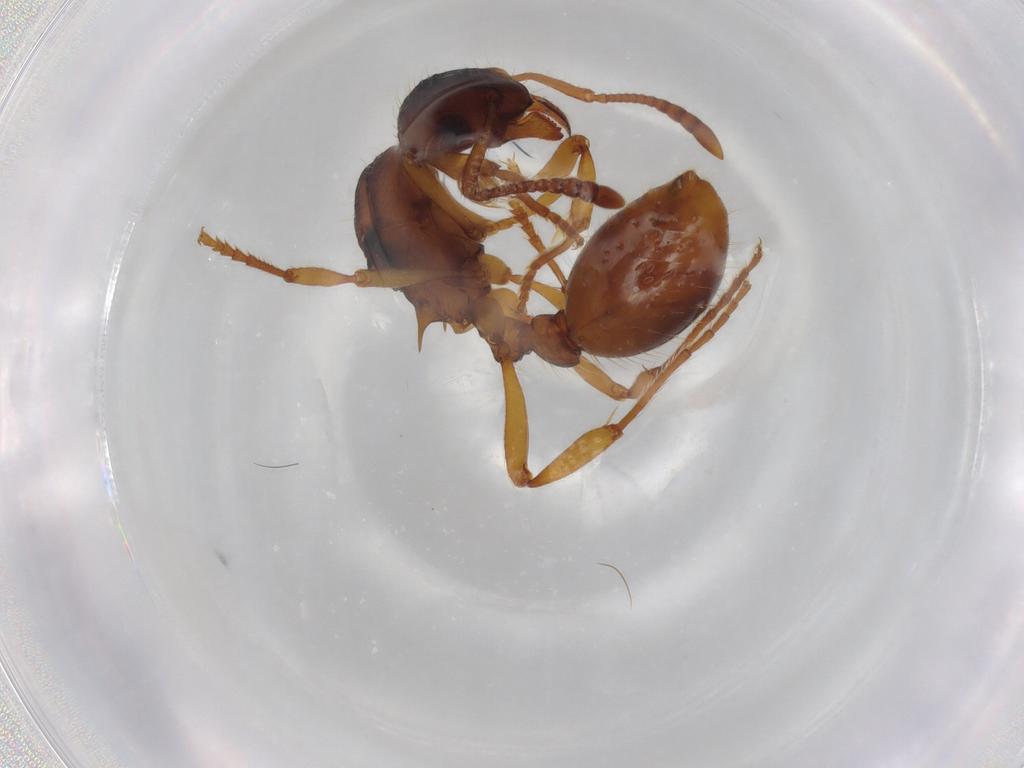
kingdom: Animalia
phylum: Arthropoda
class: Insecta
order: Hymenoptera
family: Formicidae
